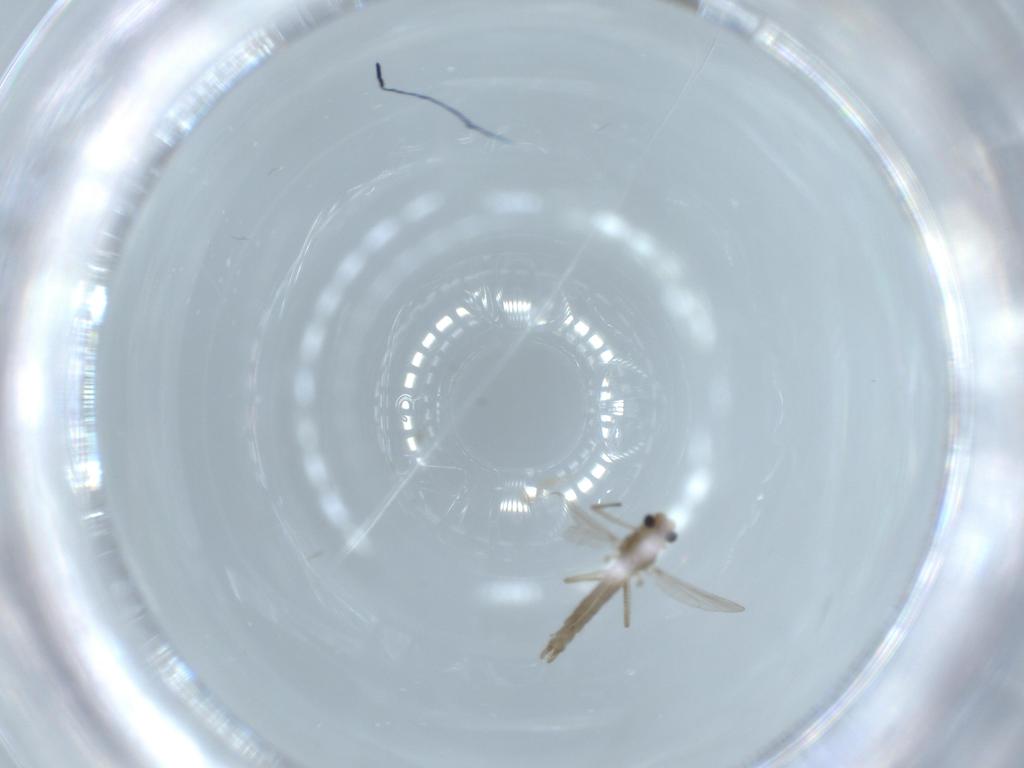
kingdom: Animalia
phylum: Arthropoda
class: Insecta
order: Diptera
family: Chironomidae
